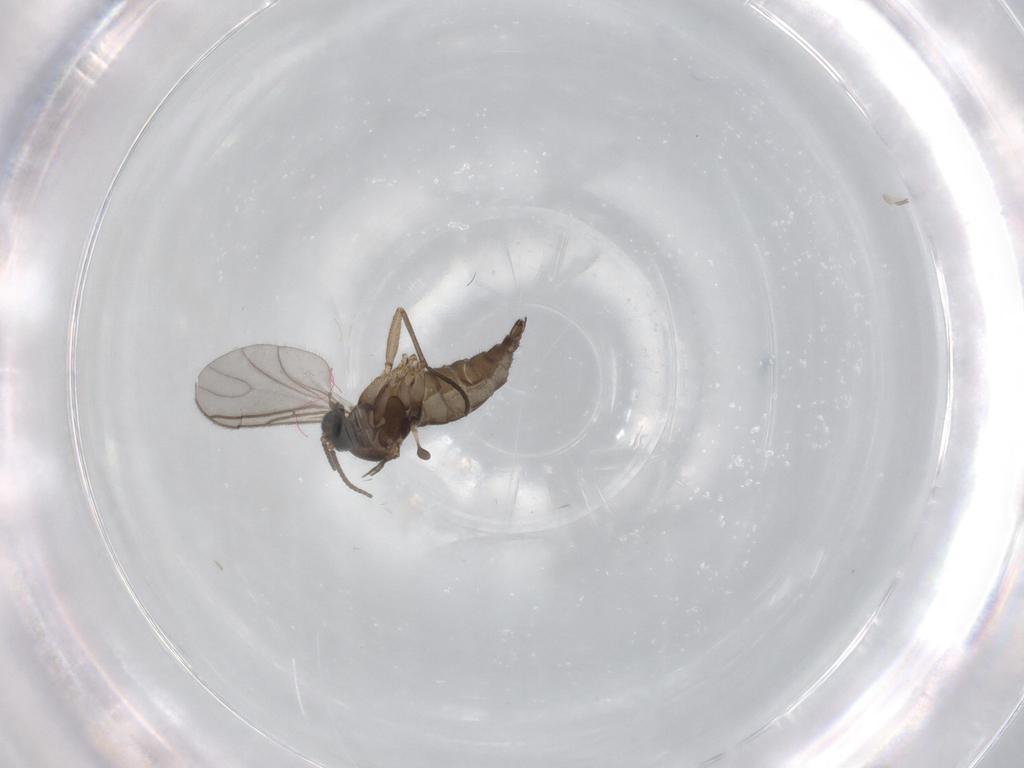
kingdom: Animalia
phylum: Arthropoda
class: Insecta
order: Diptera
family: Sciaridae
